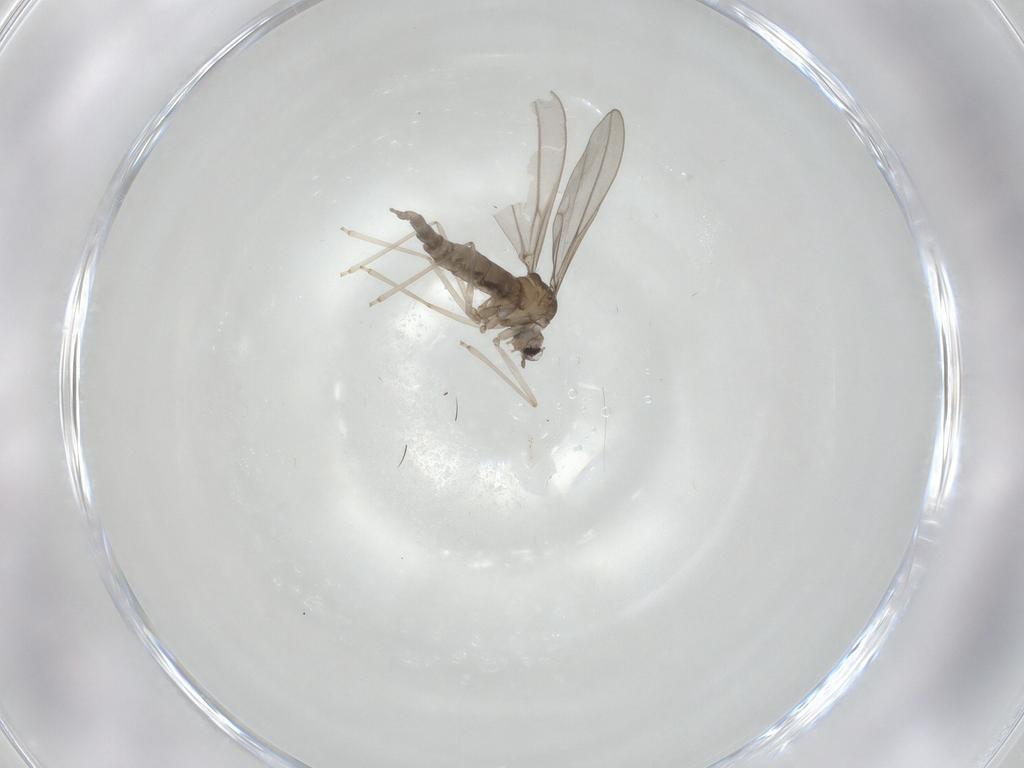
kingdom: Animalia
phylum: Arthropoda
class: Insecta
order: Diptera
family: Cecidomyiidae
